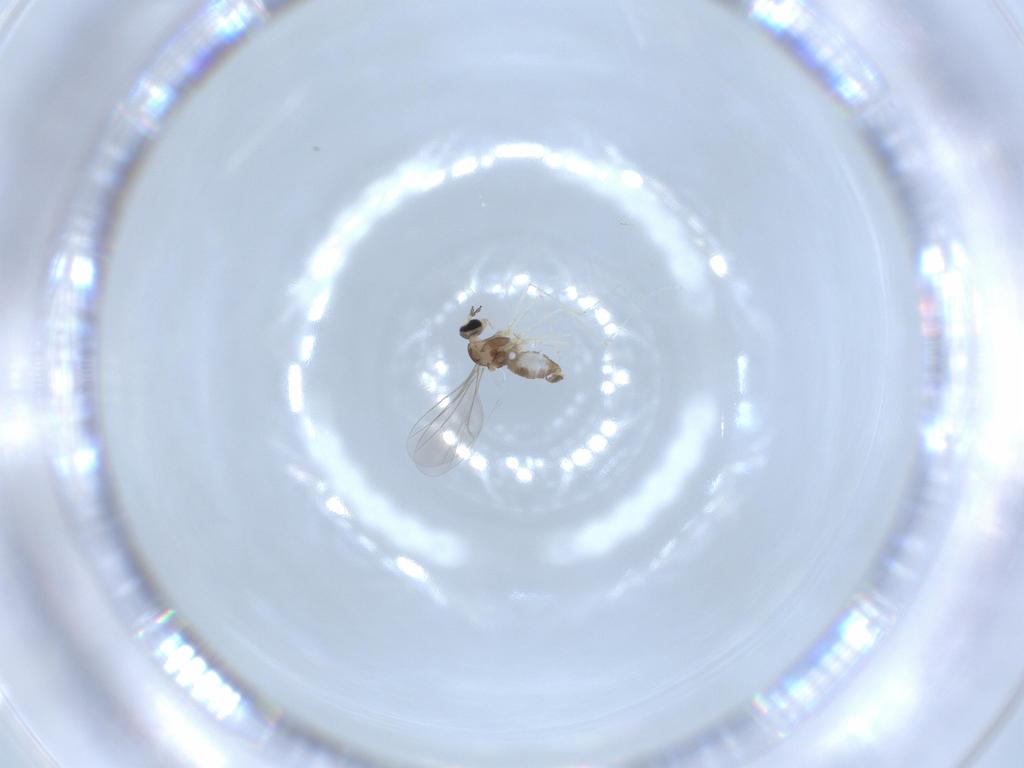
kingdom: Animalia
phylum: Arthropoda
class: Insecta
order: Diptera
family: Cecidomyiidae
